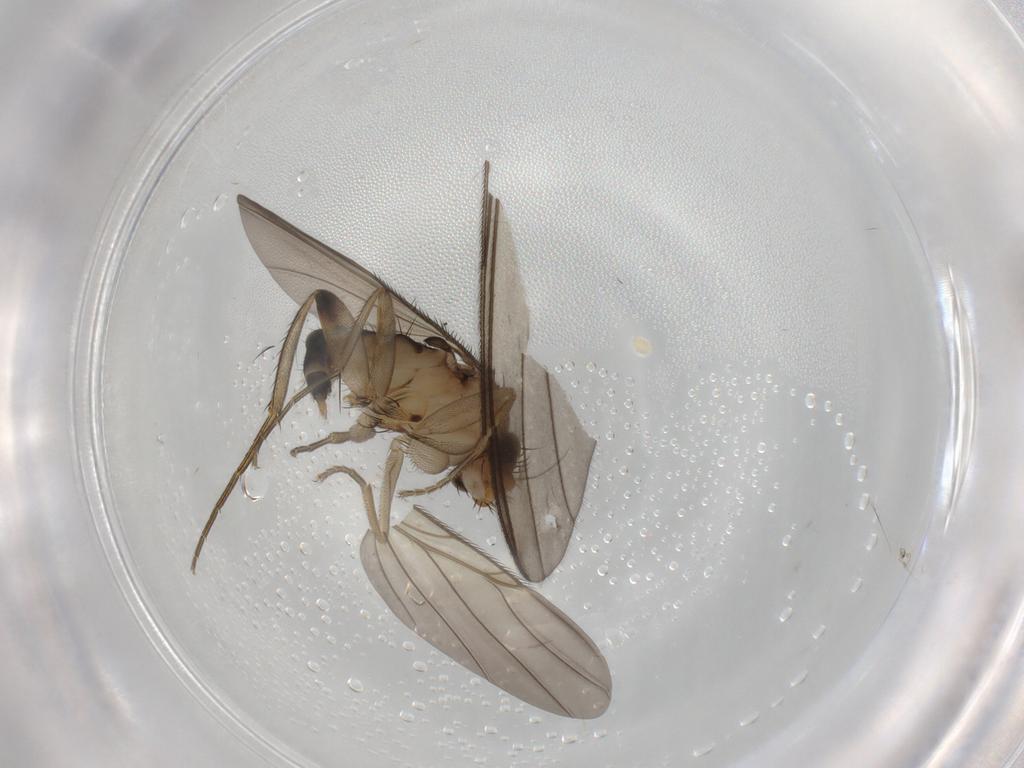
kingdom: Animalia
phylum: Arthropoda
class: Insecta
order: Diptera
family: Phoridae
